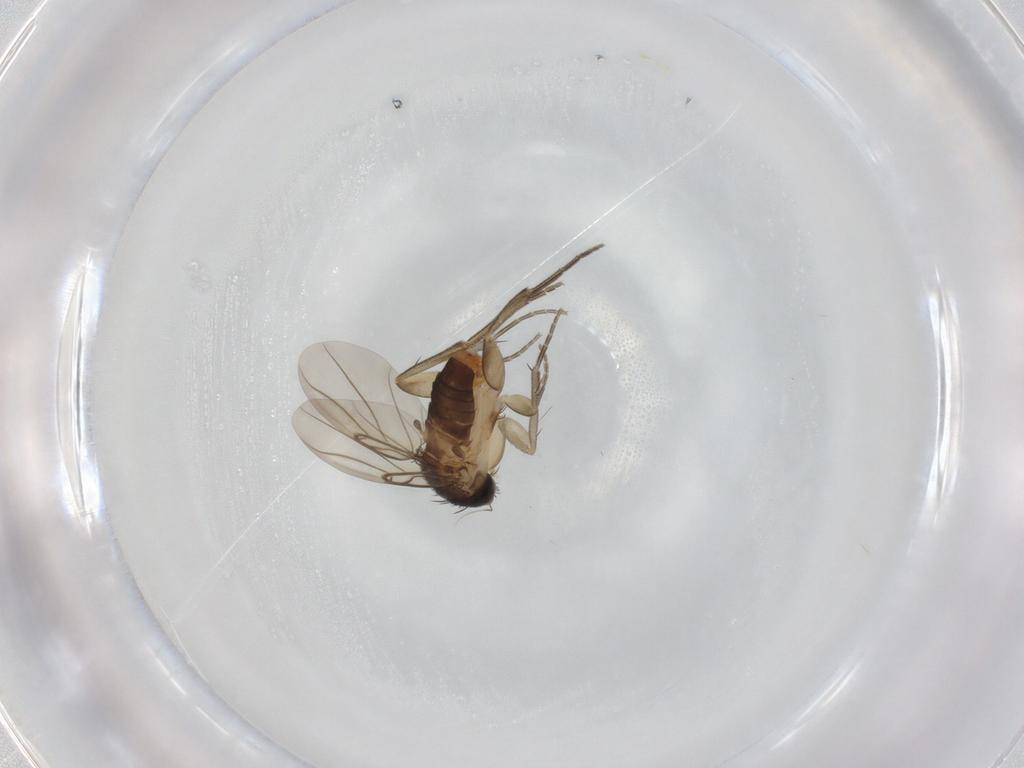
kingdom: Animalia
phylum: Arthropoda
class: Insecta
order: Diptera
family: Phoridae
